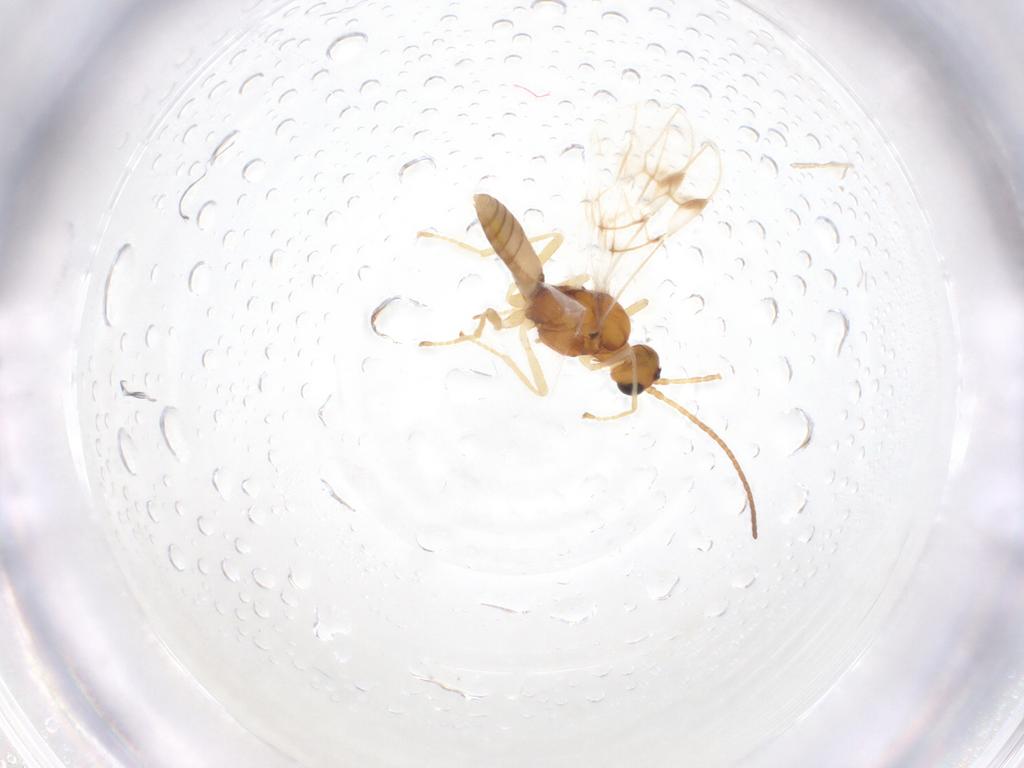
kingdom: Animalia
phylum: Arthropoda
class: Insecta
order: Hymenoptera
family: Braconidae
